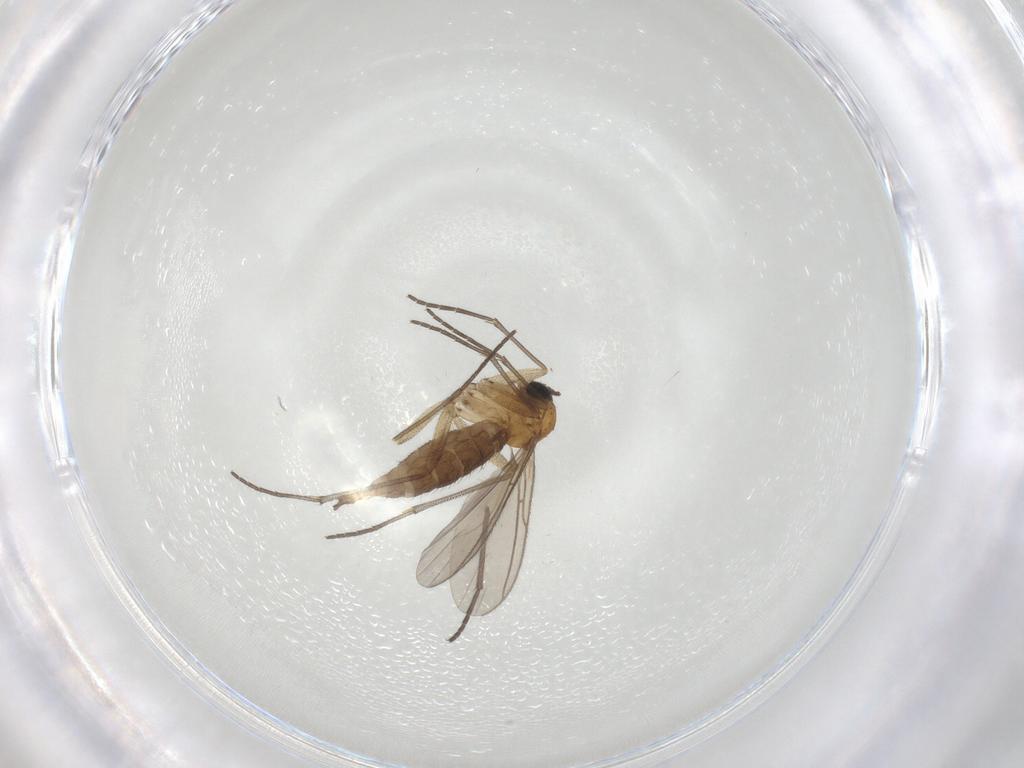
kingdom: Animalia
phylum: Arthropoda
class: Insecta
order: Diptera
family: Sciaridae
